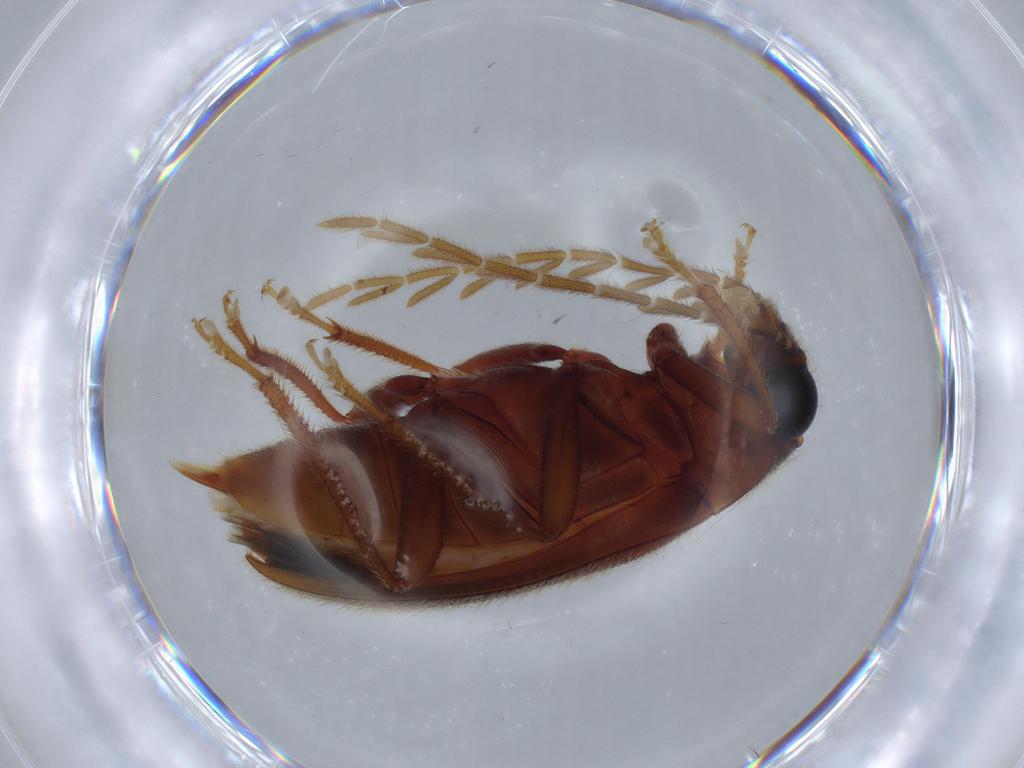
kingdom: Animalia
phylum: Arthropoda
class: Insecta
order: Coleoptera
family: Ptilodactylidae
